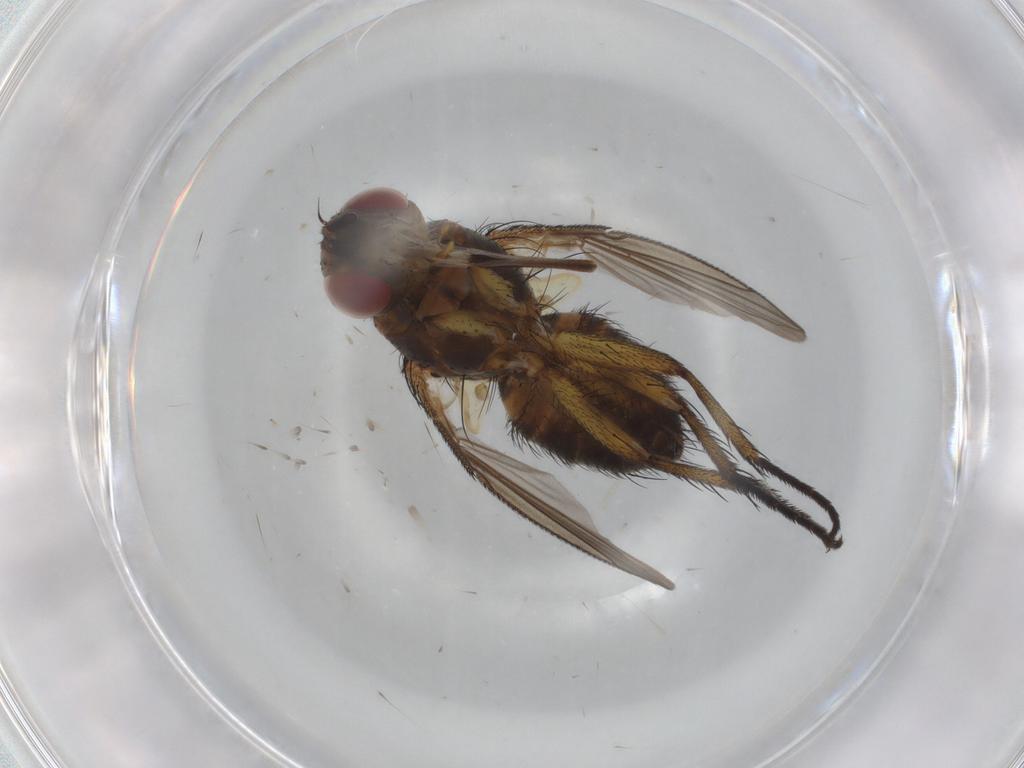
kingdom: Animalia
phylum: Arthropoda
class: Insecta
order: Diptera
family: Tachinidae
